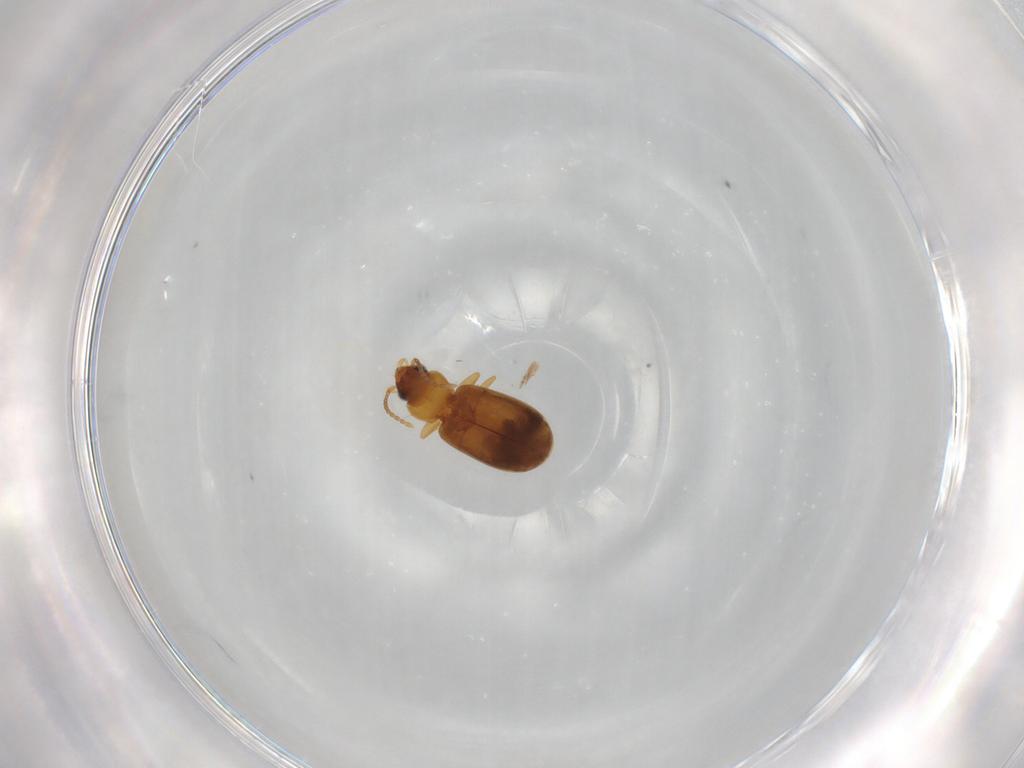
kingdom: Animalia
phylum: Arthropoda
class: Insecta
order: Coleoptera
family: Carabidae
